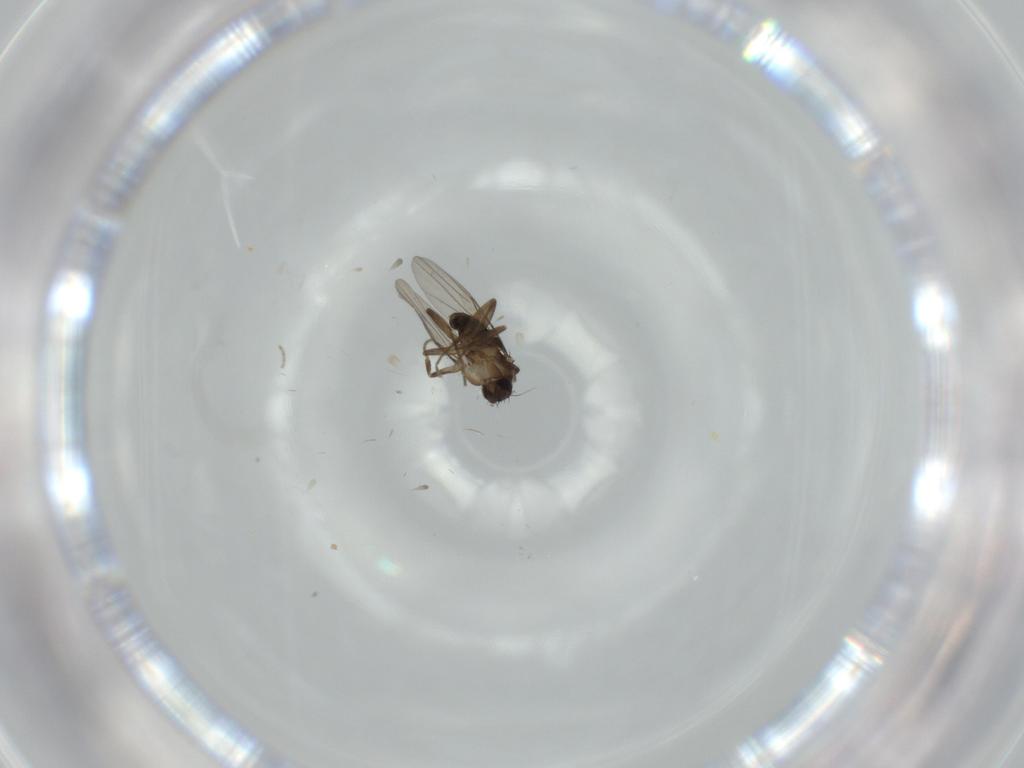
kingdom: Animalia
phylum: Arthropoda
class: Insecta
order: Diptera
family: Phoridae
